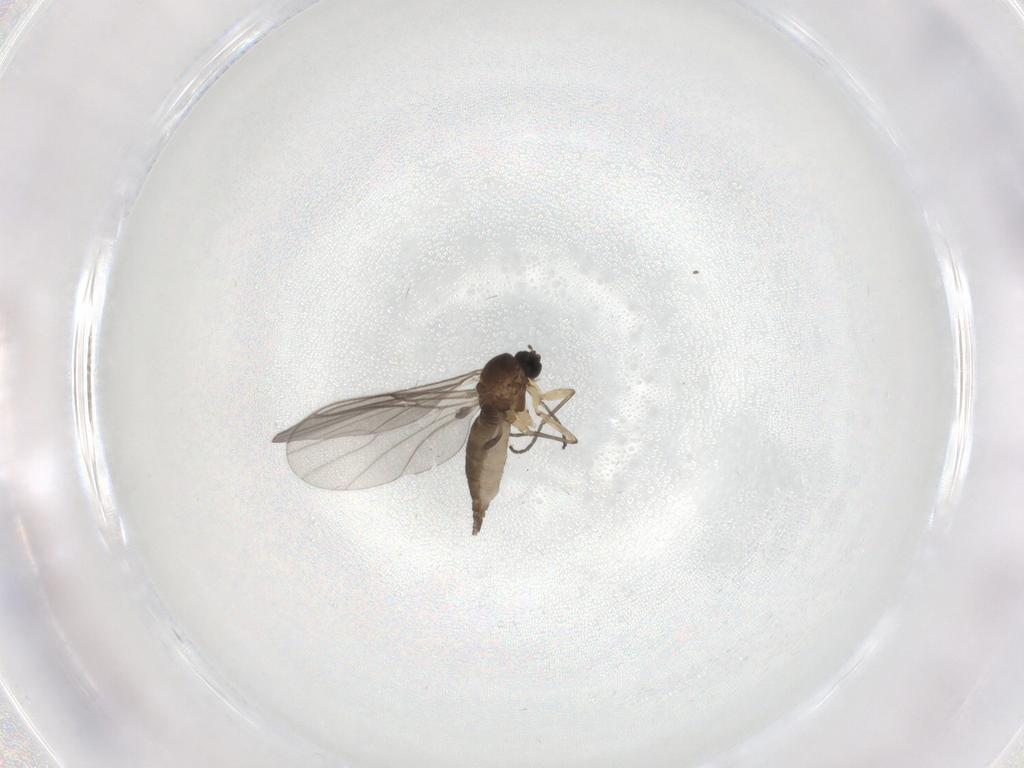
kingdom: Animalia
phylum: Arthropoda
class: Insecta
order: Diptera
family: Sciaridae
